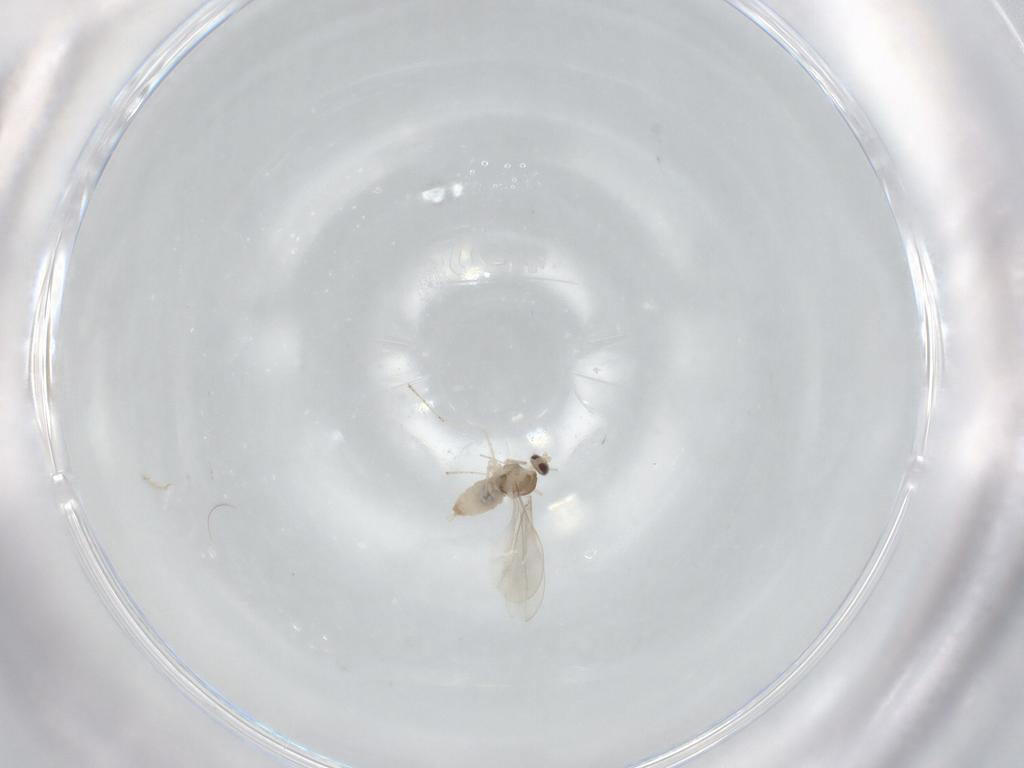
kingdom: Animalia
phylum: Arthropoda
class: Insecta
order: Diptera
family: Cecidomyiidae
